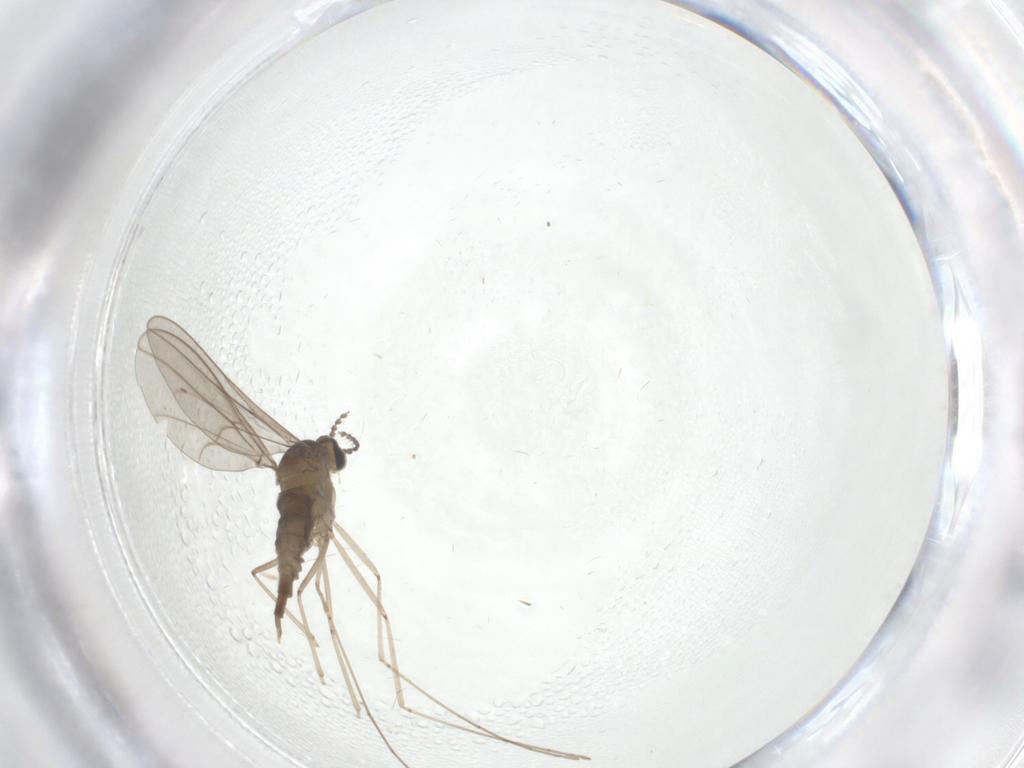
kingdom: Animalia
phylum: Arthropoda
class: Insecta
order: Diptera
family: Cecidomyiidae
